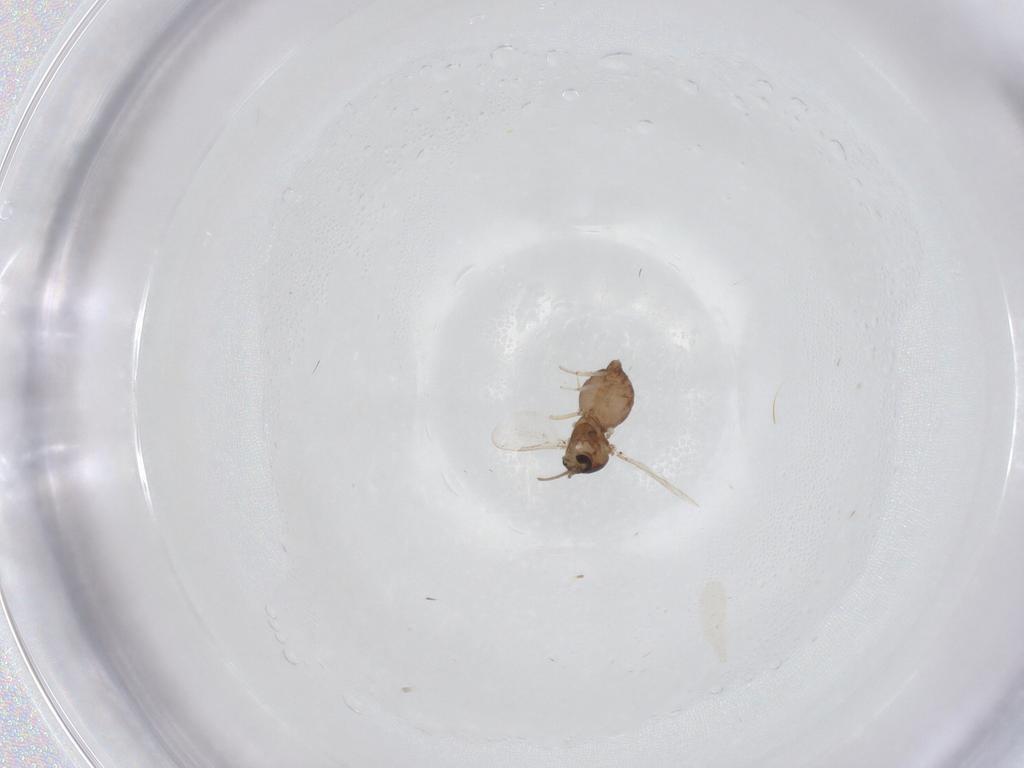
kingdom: Animalia
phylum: Arthropoda
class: Insecta
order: Diptera
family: Ceratopogonidae
